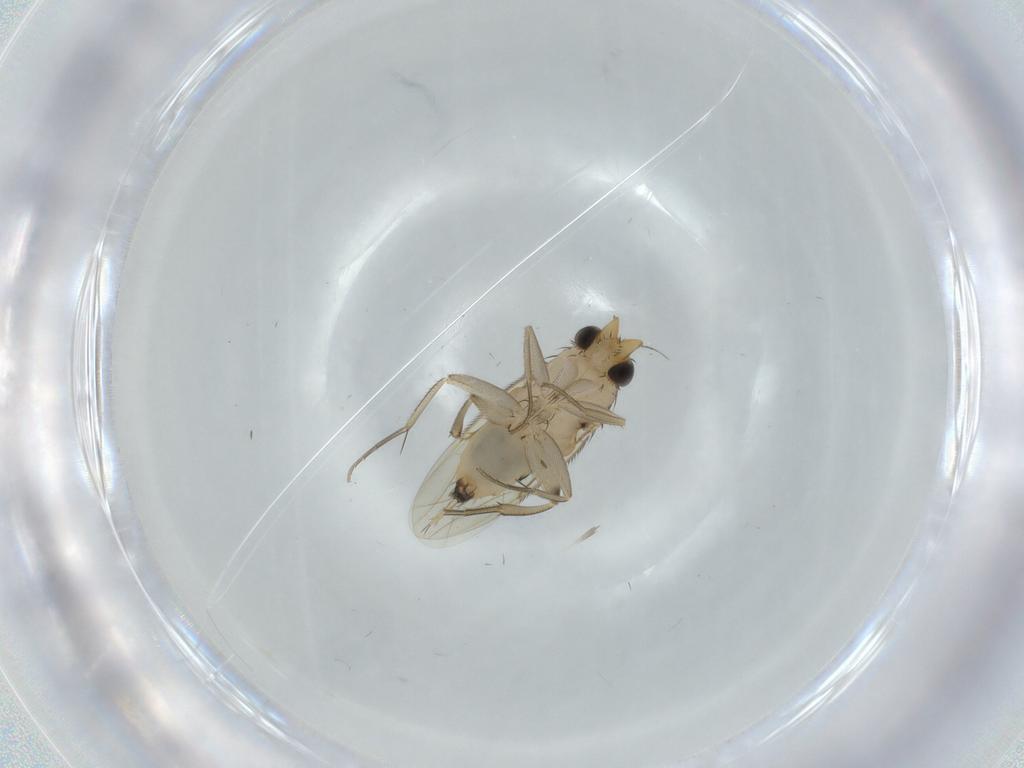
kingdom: Animalia
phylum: Arthropoda
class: Insecta
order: Diptera
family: Phoridae
